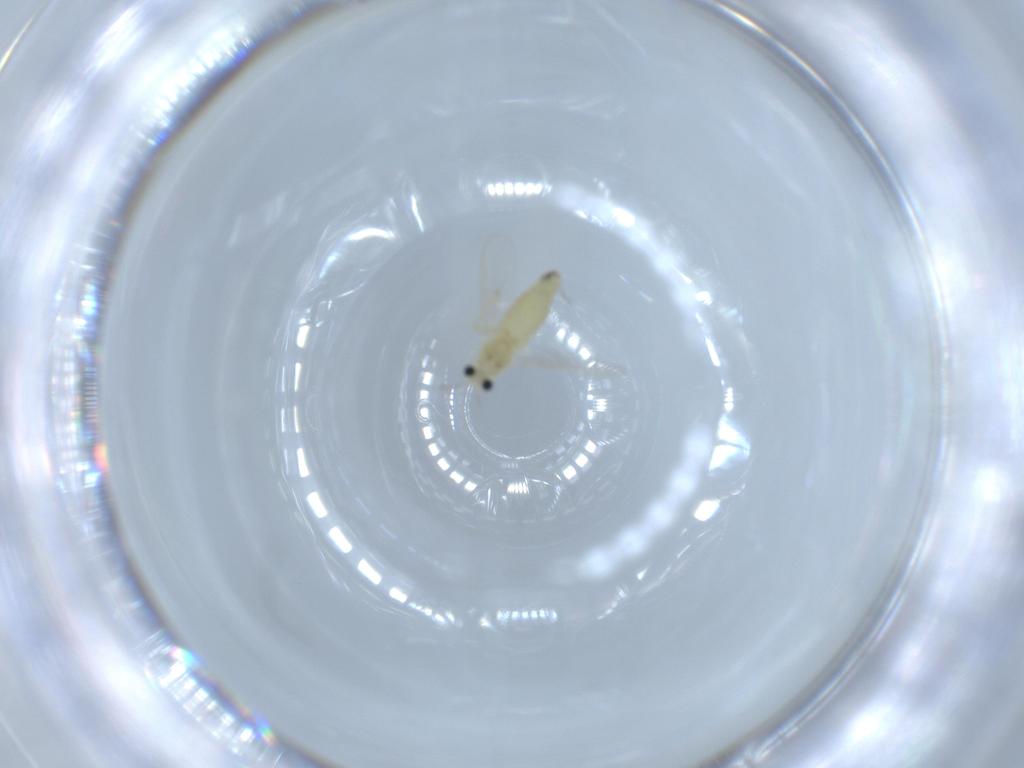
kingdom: Animalia
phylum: Arthropoda
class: Insecta
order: Diptera
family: Chironomidae
